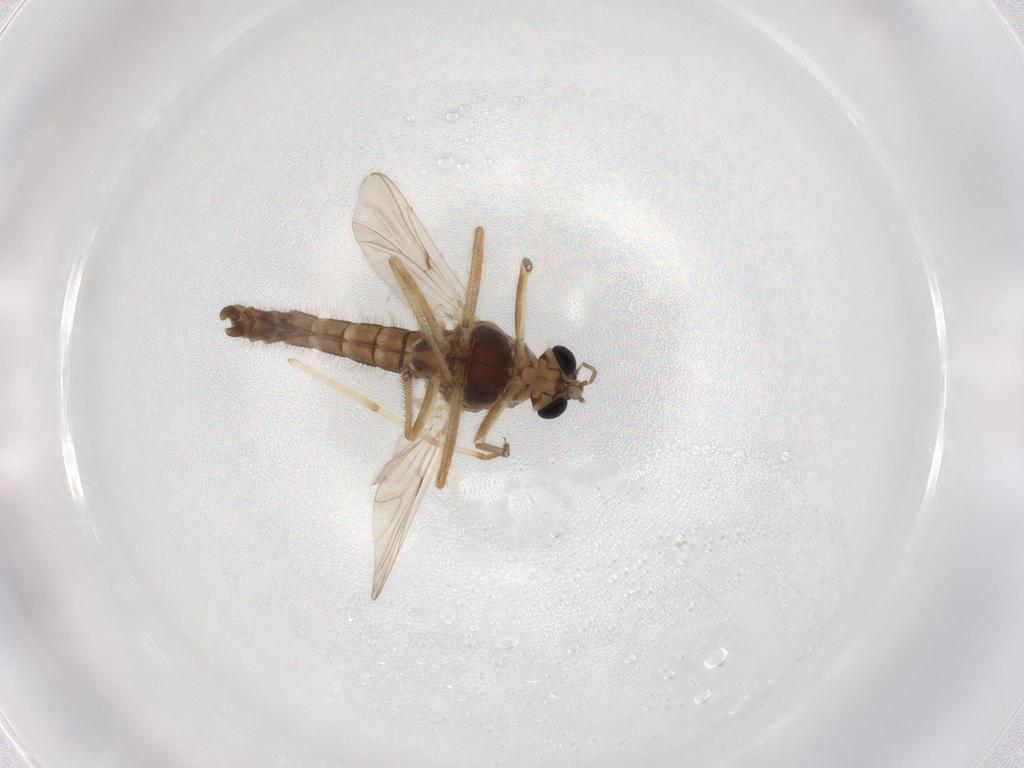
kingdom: Animalia
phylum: Arthropoda
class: Insecta
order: Diptera
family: Chironomidae
